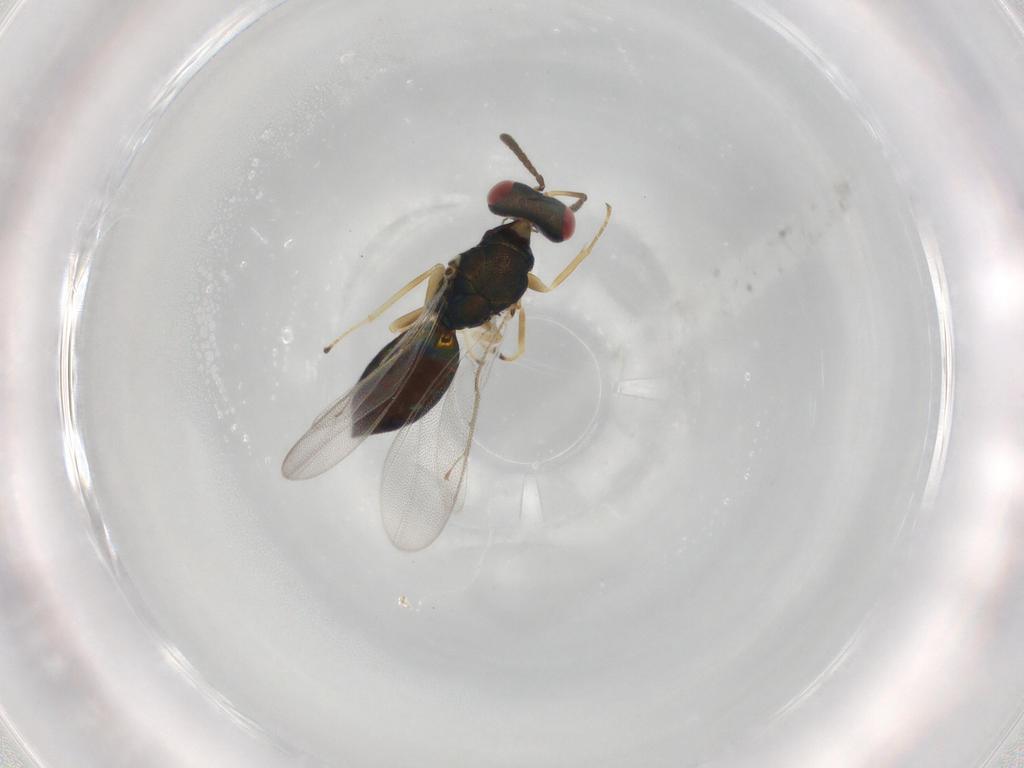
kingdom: Animalia
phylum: Arthropoda
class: Insecta
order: Hymenoptera
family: Pteromalidae
